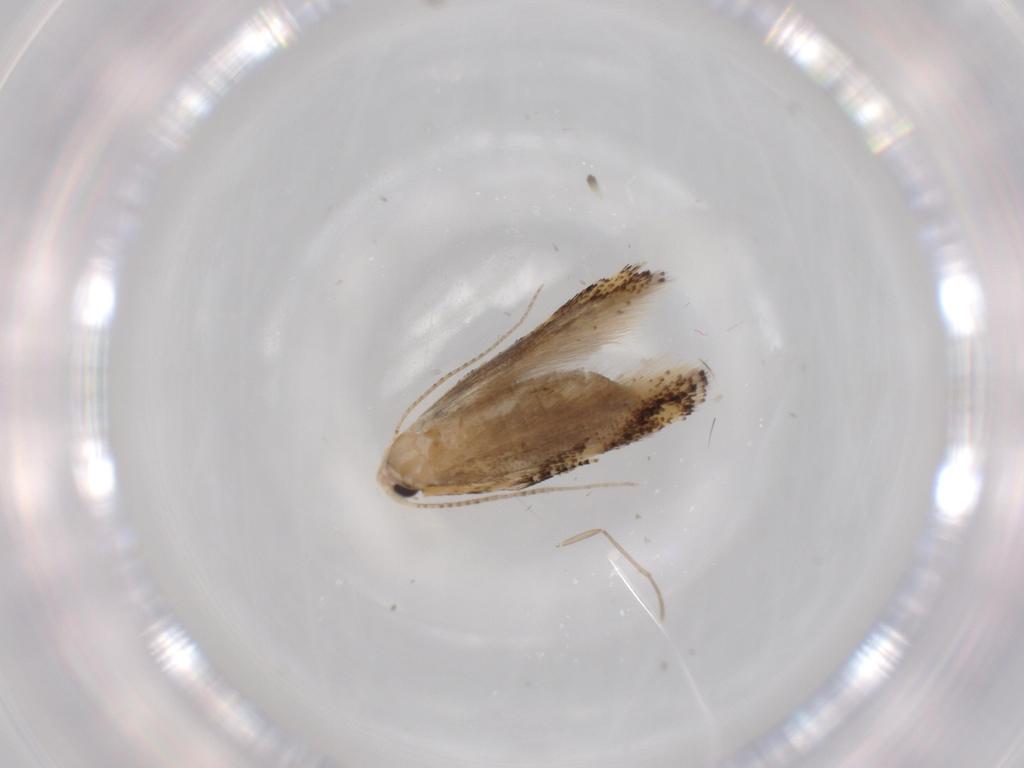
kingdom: Animalia
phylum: Arthropoda
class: Insecta
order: Lepidoptera
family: Bucculatricidae
